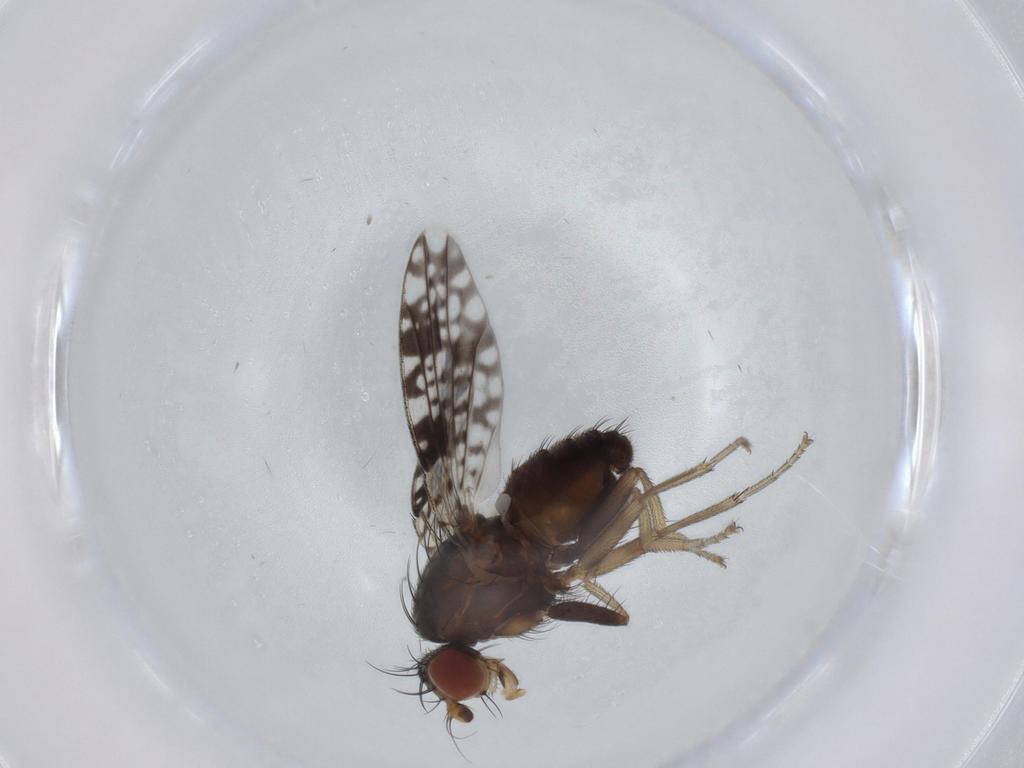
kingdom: Animalia
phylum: Arthropoda
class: Insecta
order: Diptera
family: Tephritidae
